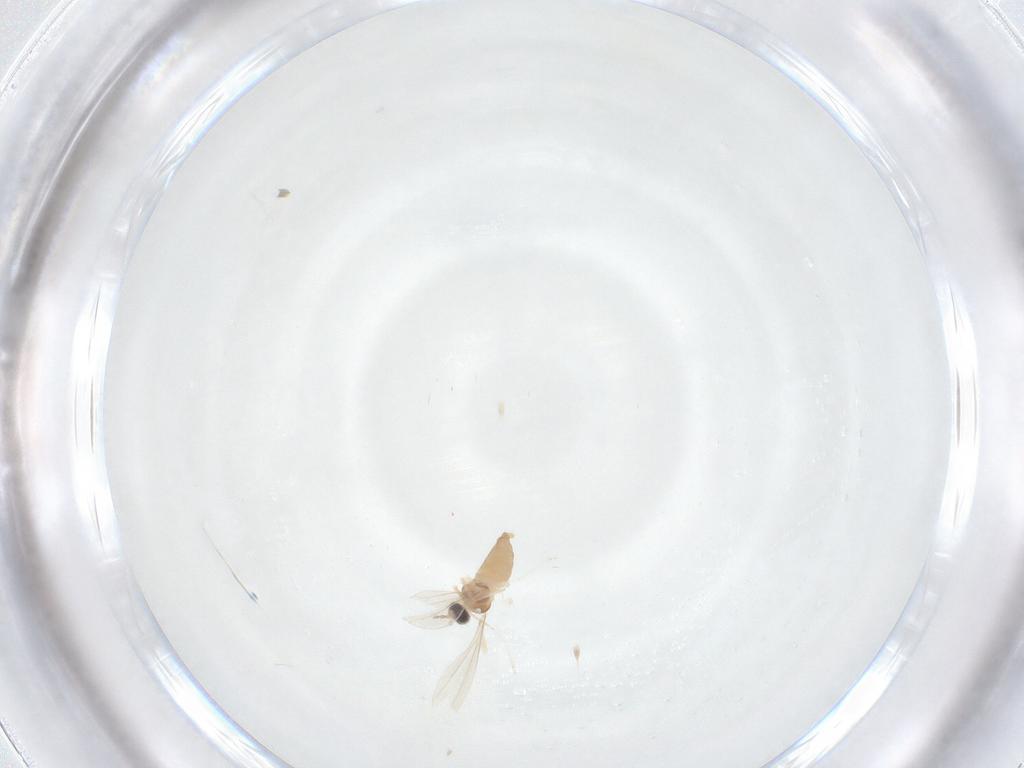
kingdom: Animalia
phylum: Arthropoda
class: Insecta
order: Diptera
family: Cecidomyiidae
